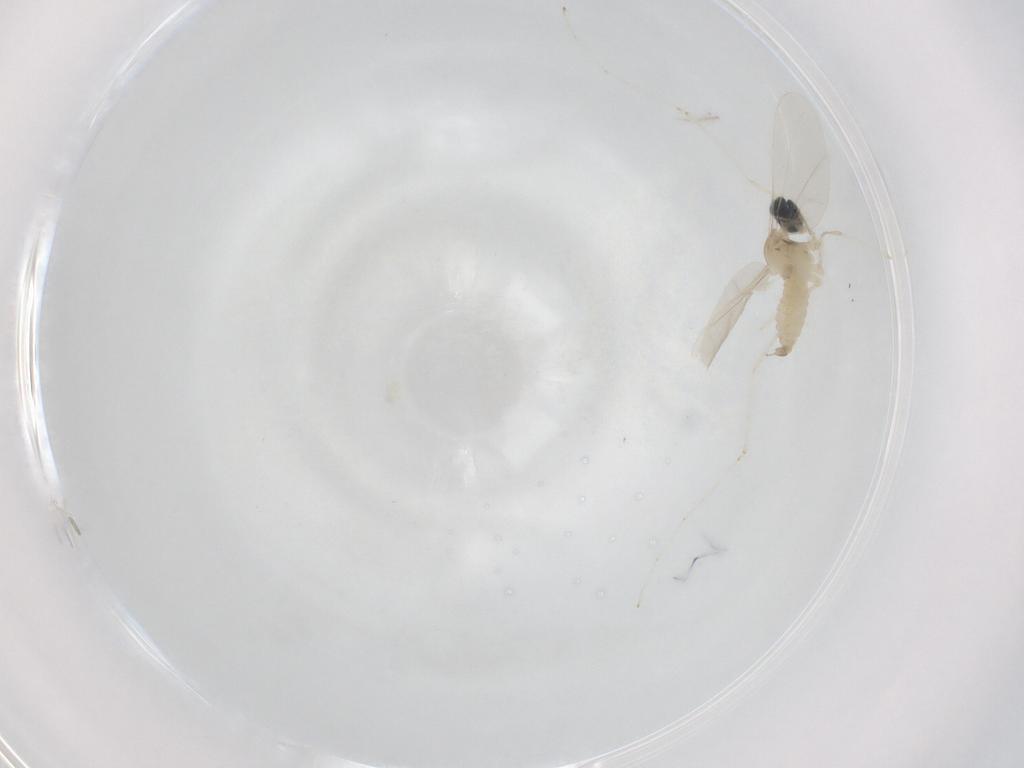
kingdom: Animalia
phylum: Arthropoda
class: Insecta
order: Diptera
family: Cecidomyiidae
